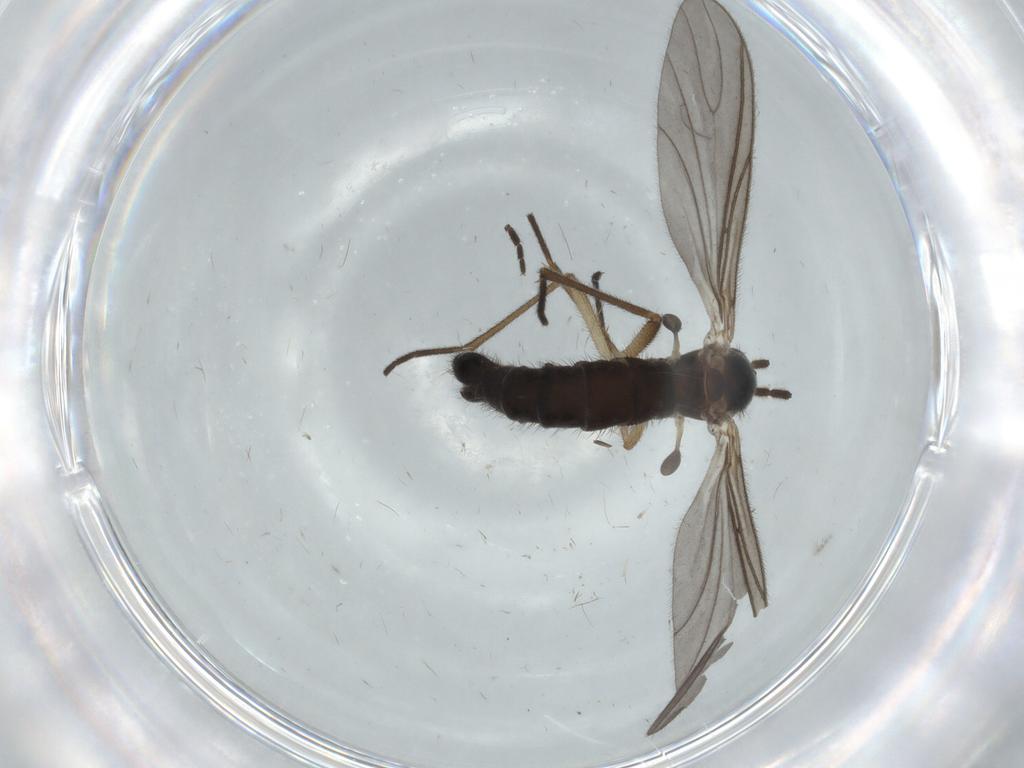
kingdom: Animalia
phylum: Arthropoda
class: Insecta
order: Diptera
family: Sciaridae
